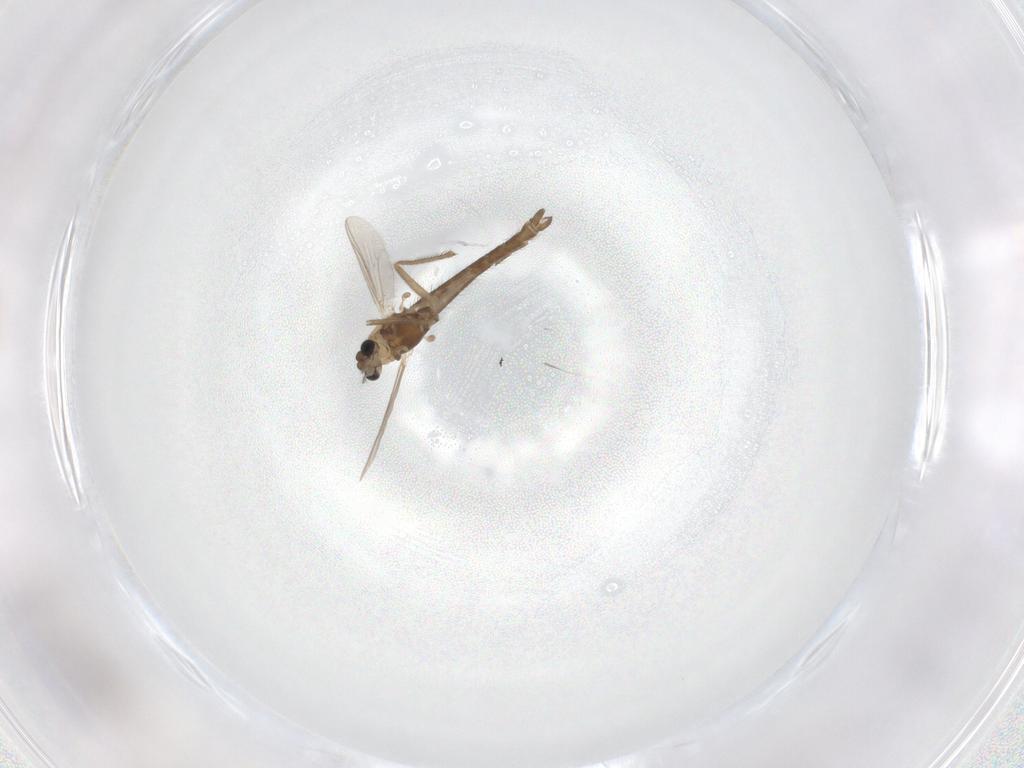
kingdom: Animalia
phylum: Arthropoda
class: Insecta
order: Diptera
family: Chironomidae
